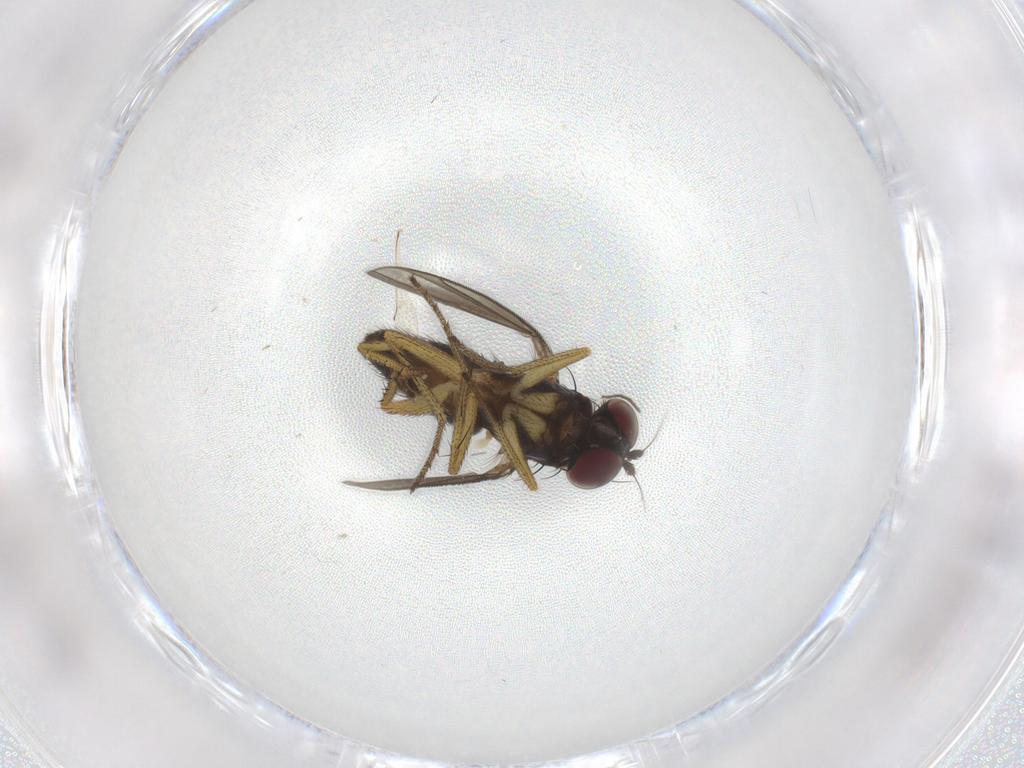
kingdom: Animalia
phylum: Arthropoda
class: Insecta
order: Diptera
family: Dolichopodidae
